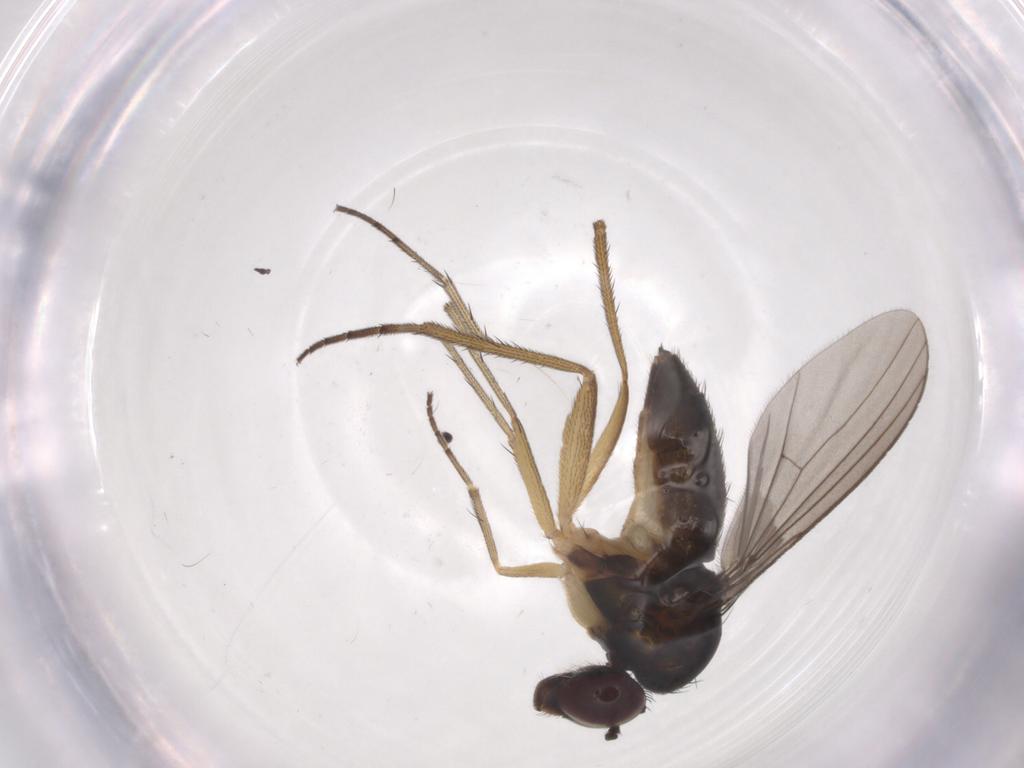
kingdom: Animalia
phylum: Arthropoda
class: Insecta
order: Diptera
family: Dolichopodidae
